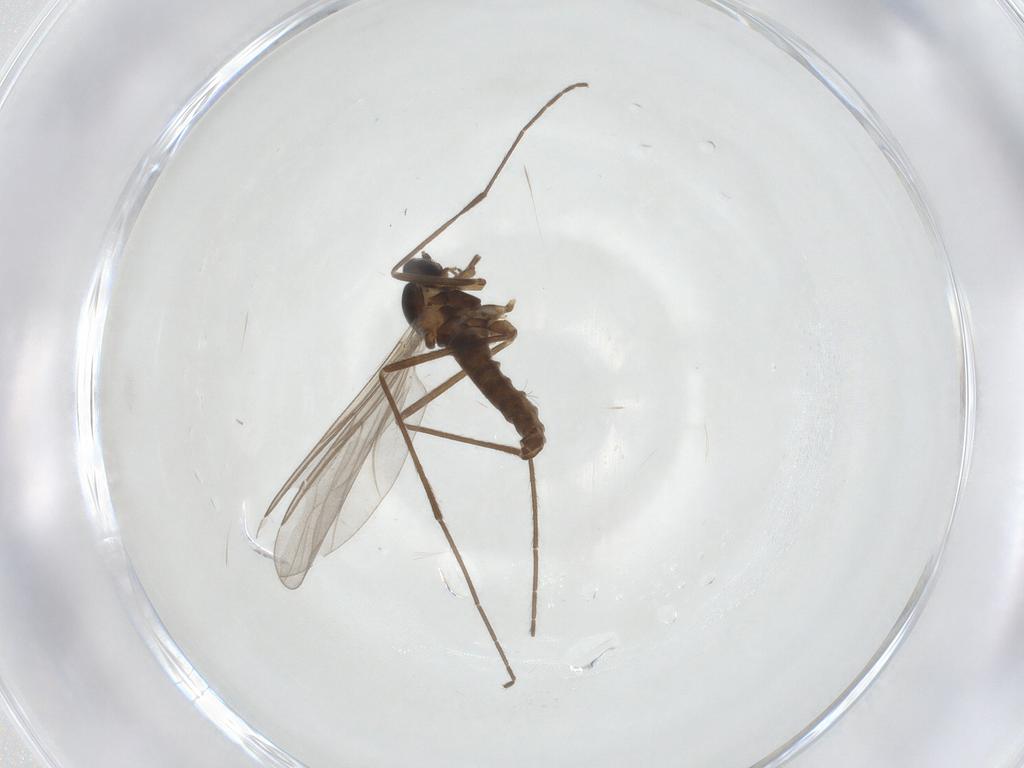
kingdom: Animalia
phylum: Arthropoda
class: Insecta
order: Diptera
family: Cecidomyiidae
